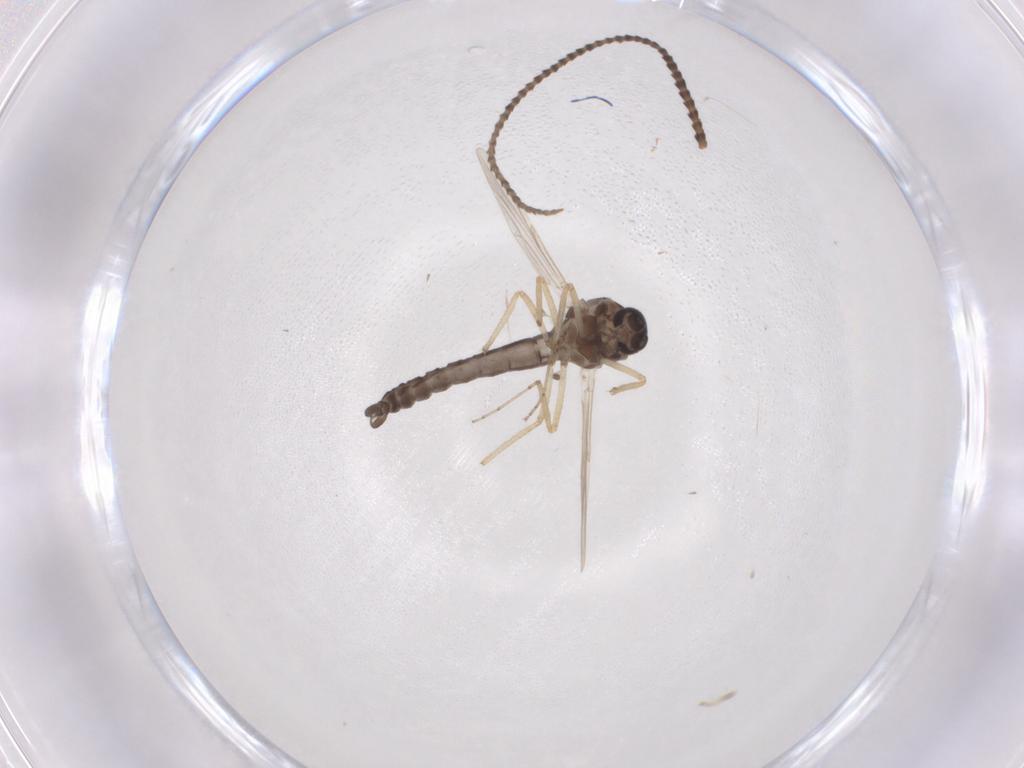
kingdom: Animalia
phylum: Arthropoda
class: Insecta
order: Diptera
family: Ceratopogonidae
